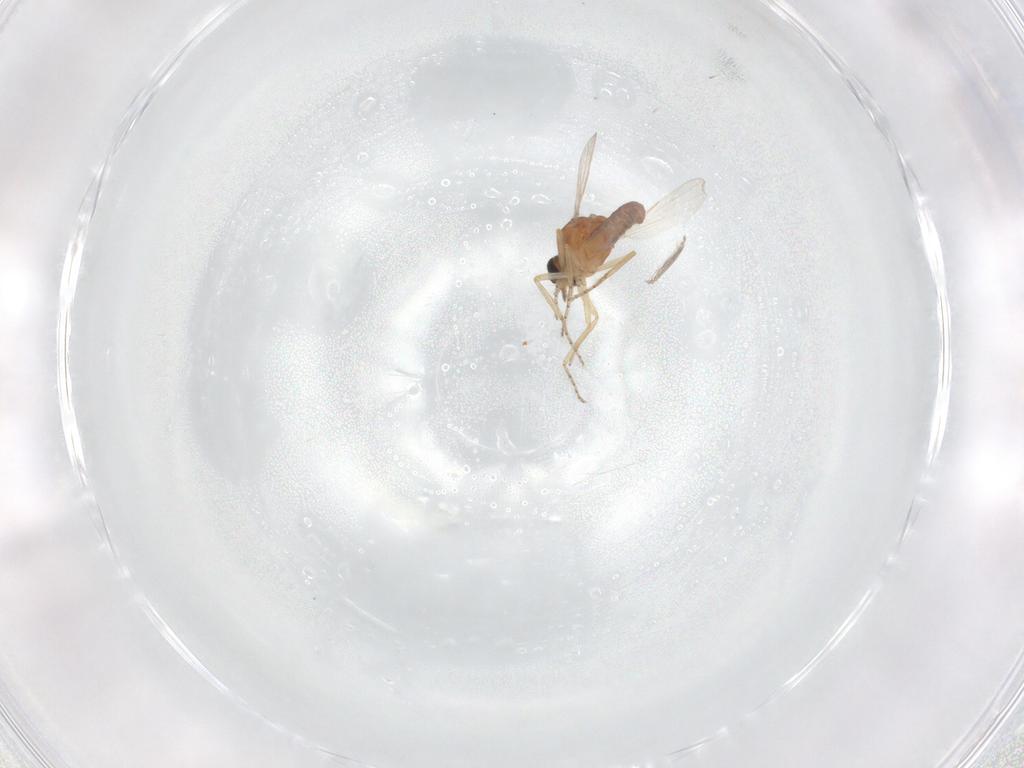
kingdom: Animalia
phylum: Arthropoda
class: Insecta
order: Diptera
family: Ceratopogonidae
